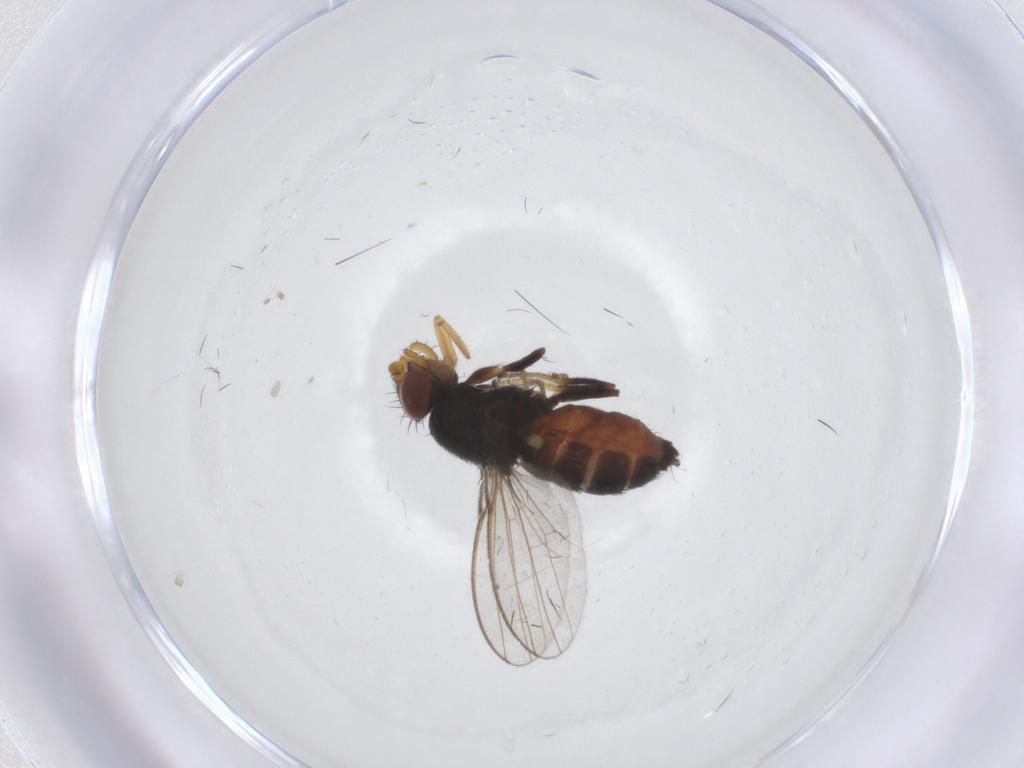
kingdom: Animalia
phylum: Arthropoda
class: Insecta
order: Diptera
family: Milichiidae
